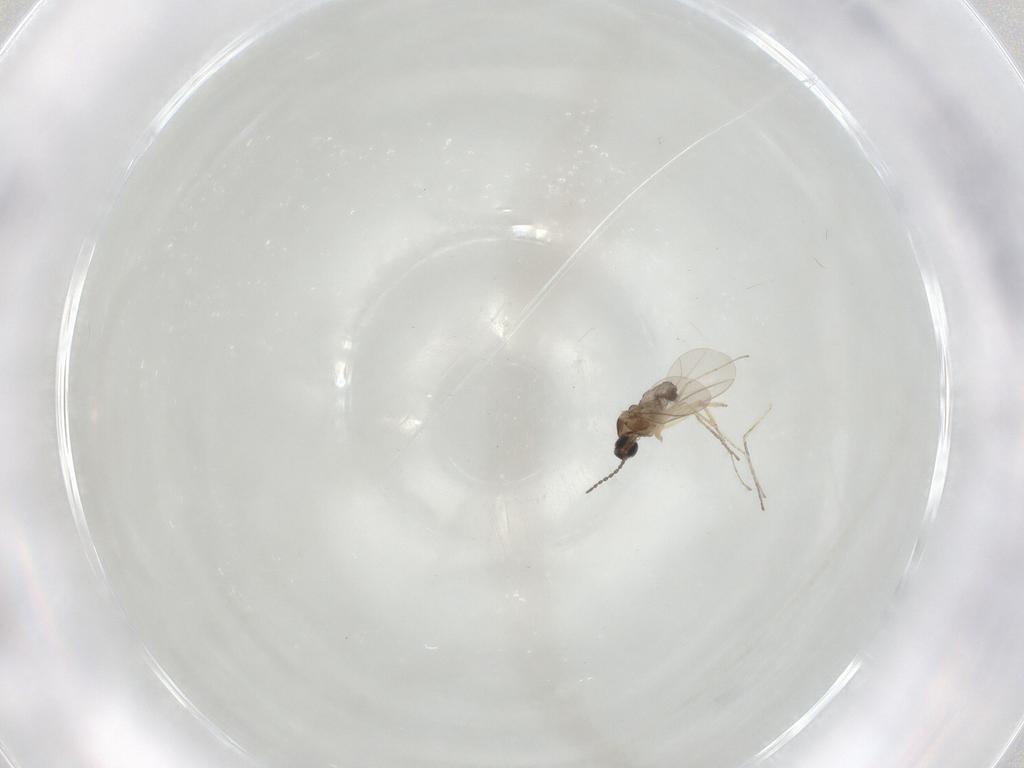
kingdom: Animalia
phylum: Arthropoda
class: Insecta
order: Diptera
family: Cecidomyiidae
